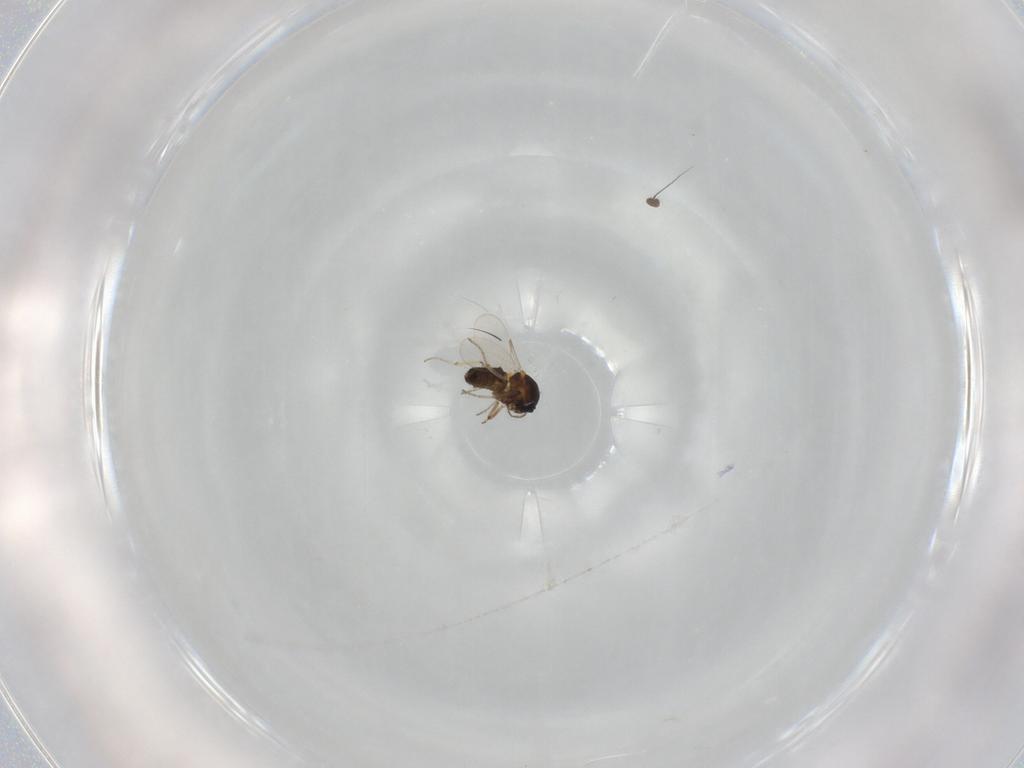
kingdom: Animalia
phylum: Arthropoda
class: Insecta
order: Diptera
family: Ceratopogonidae
